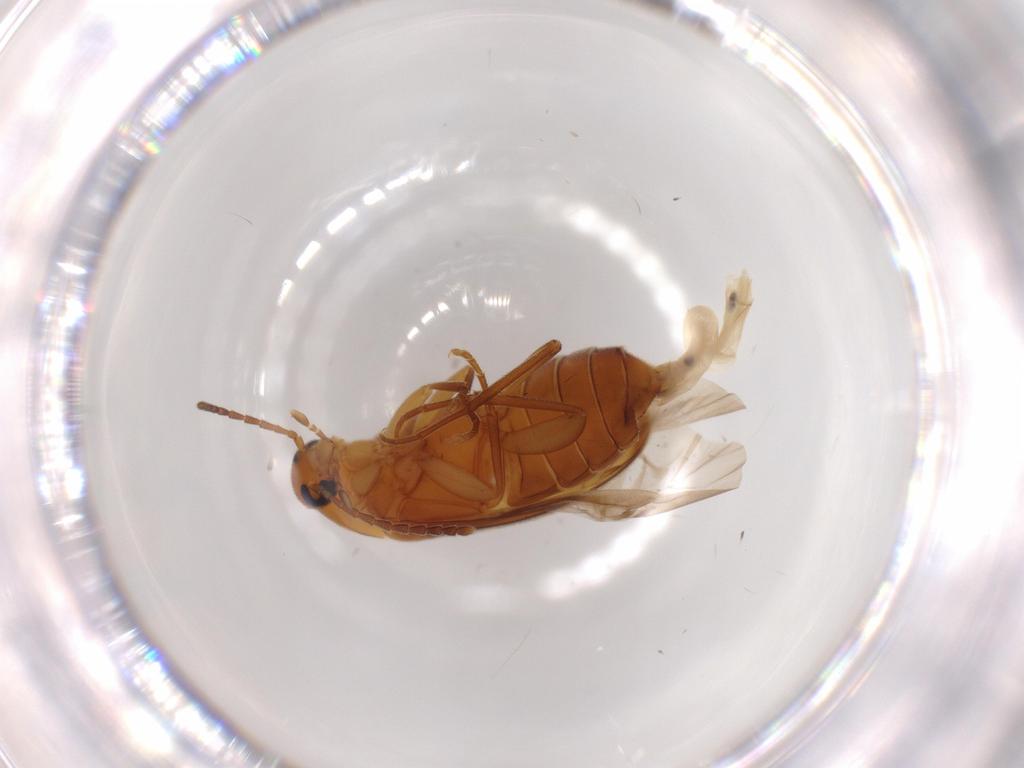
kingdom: Animalia
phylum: Arthropoda
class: Insecta
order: Coleoptera
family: Scraptiidae
